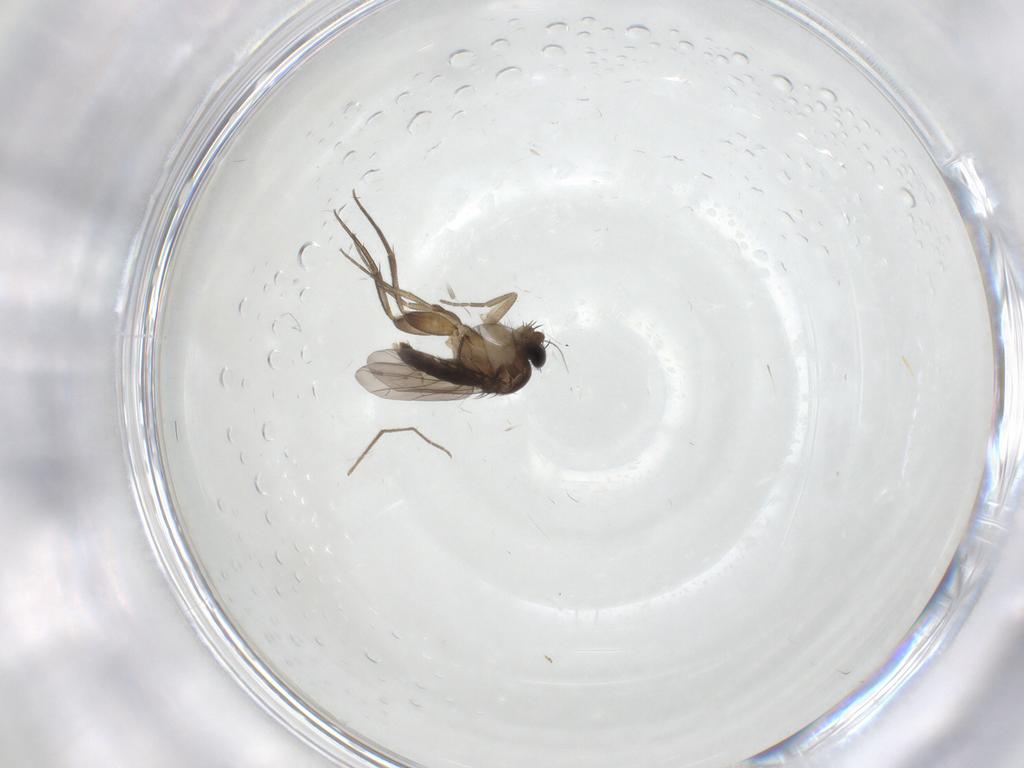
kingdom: Animalia
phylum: Arthropoda
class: Insecta
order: Diptera
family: Phoridae
